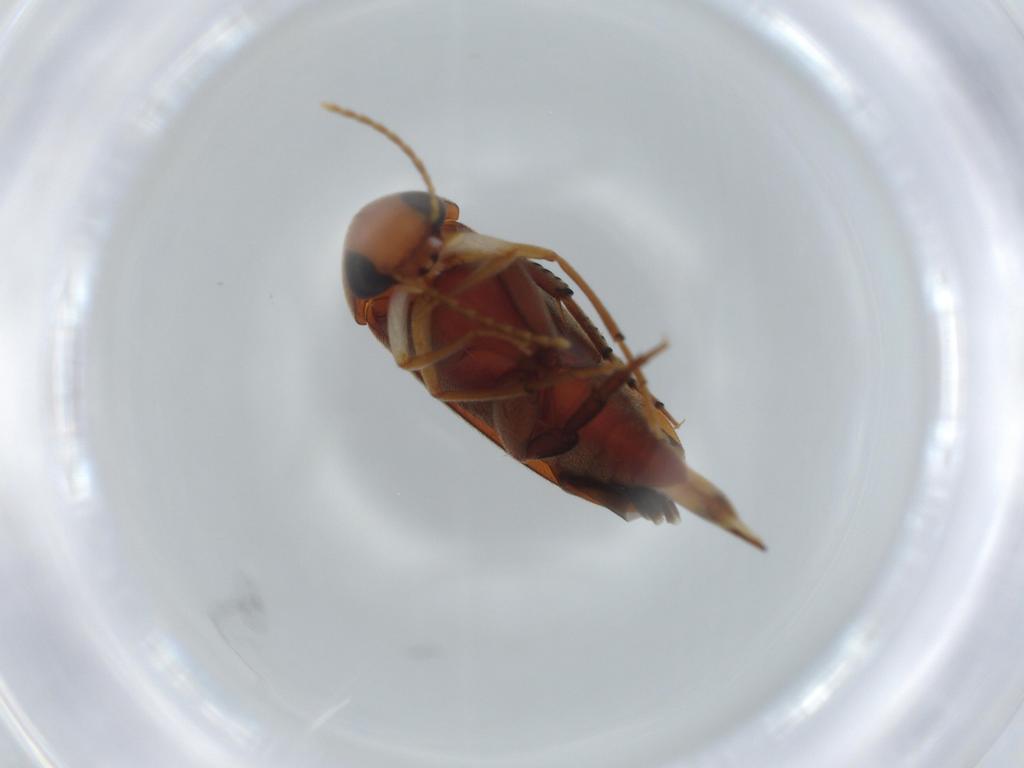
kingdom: Animalia
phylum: Arthropoda
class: Insecta
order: Coleoptera
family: Mordellidae
